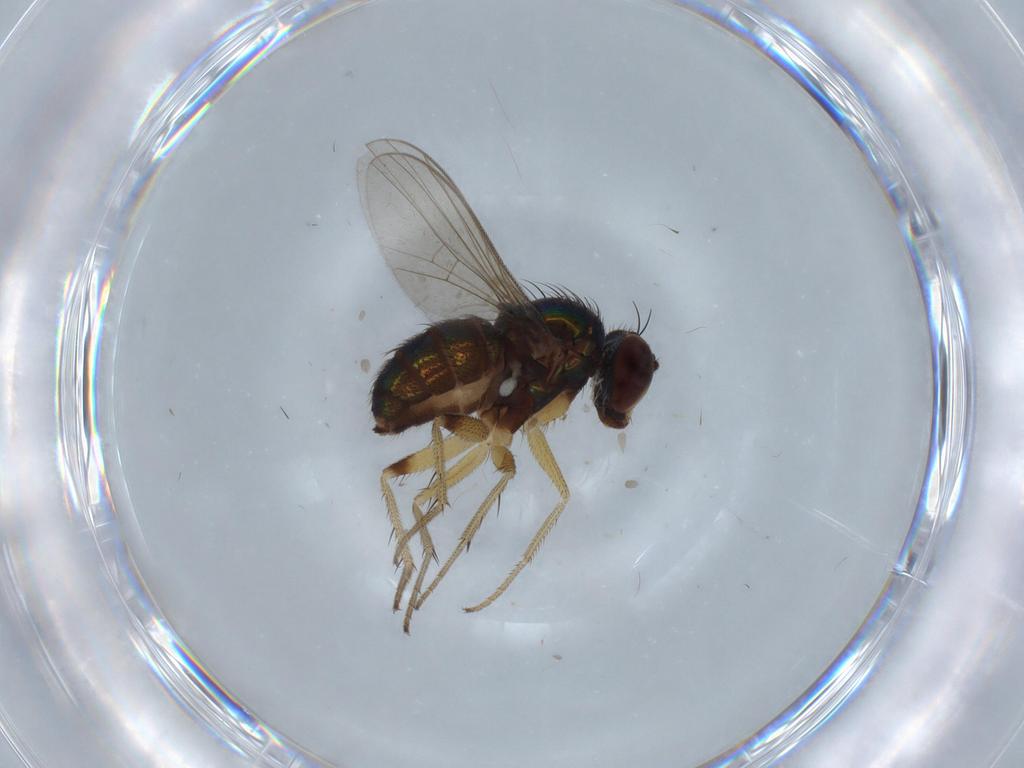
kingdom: Animalia
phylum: Arthropoda
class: Insecta
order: Diptera
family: Dolichopodidae
